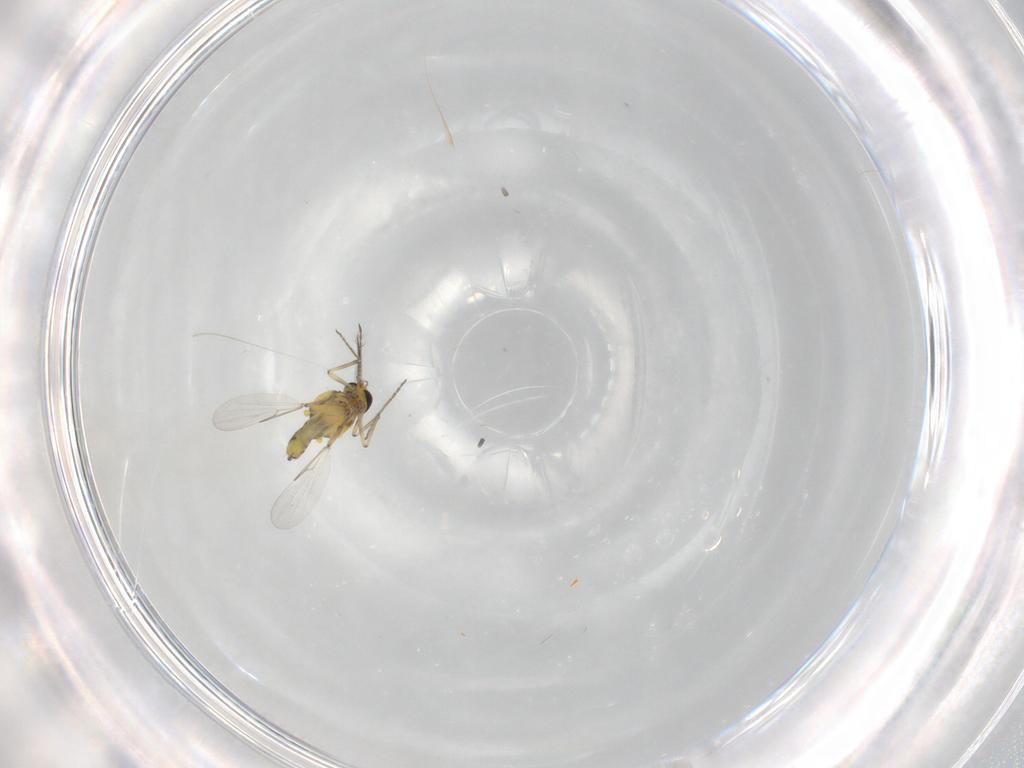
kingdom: Animalia
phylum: Arthropoda
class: Insecta
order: Diptera
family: Ceratopogonidae
